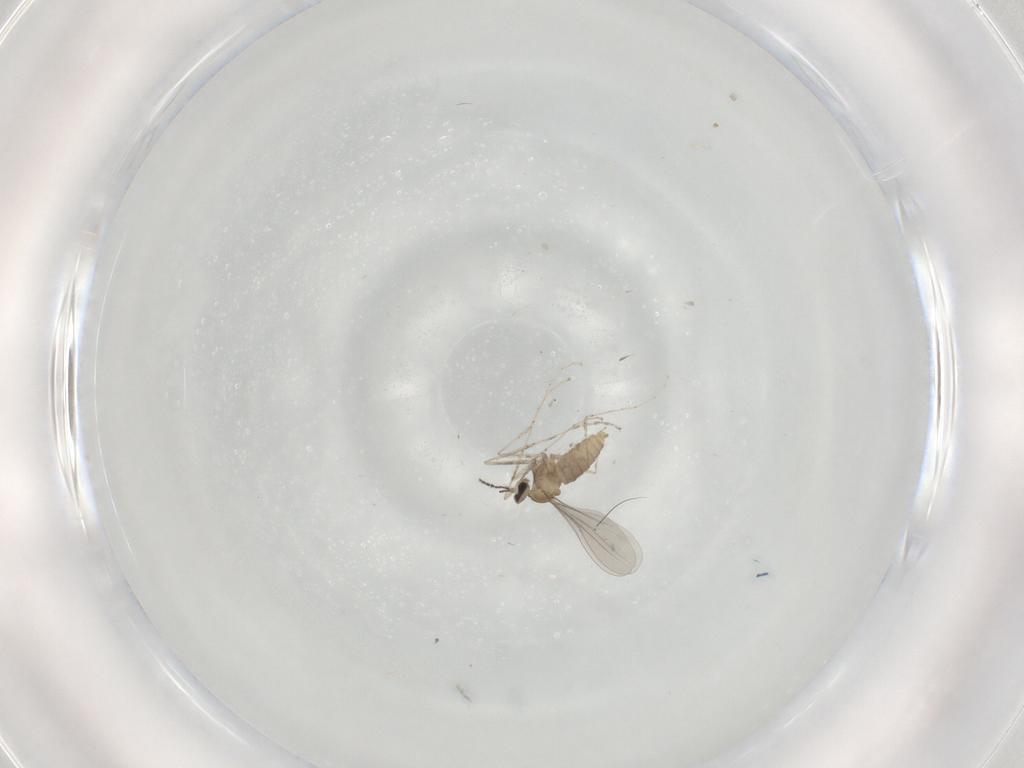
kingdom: Animalia
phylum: Arthropoda
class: Insecta
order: Diptera
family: Cecidomyiidae
